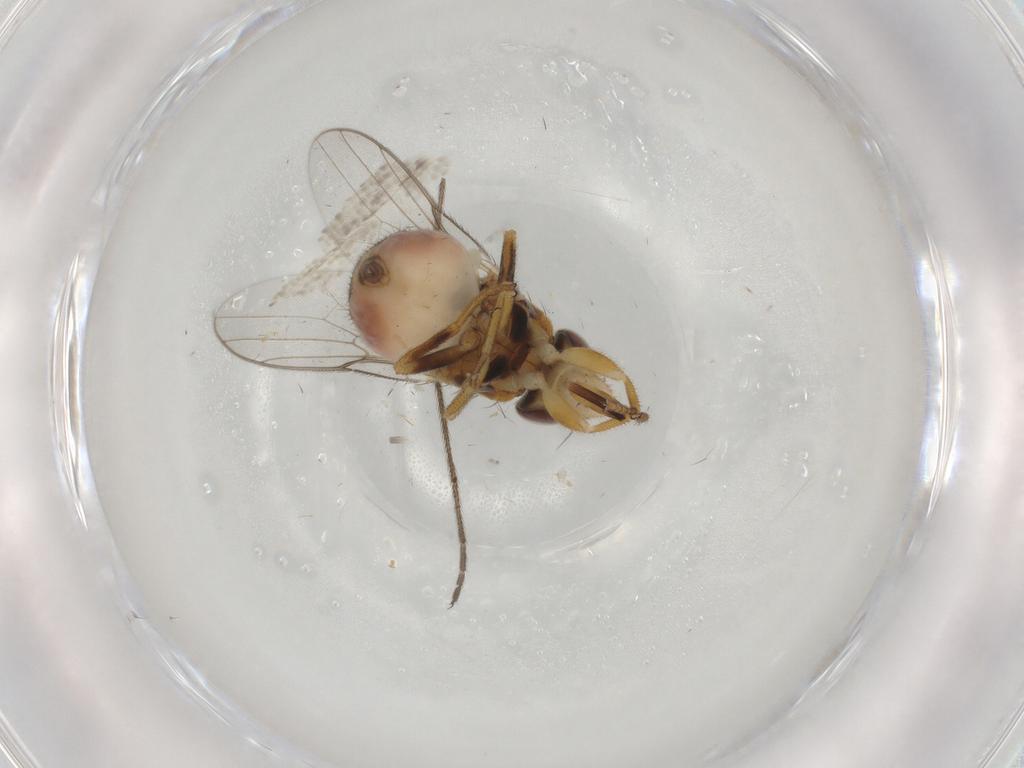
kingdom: Animalia
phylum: Arthropoda
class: Insecta
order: Diptera
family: Chloropidae
